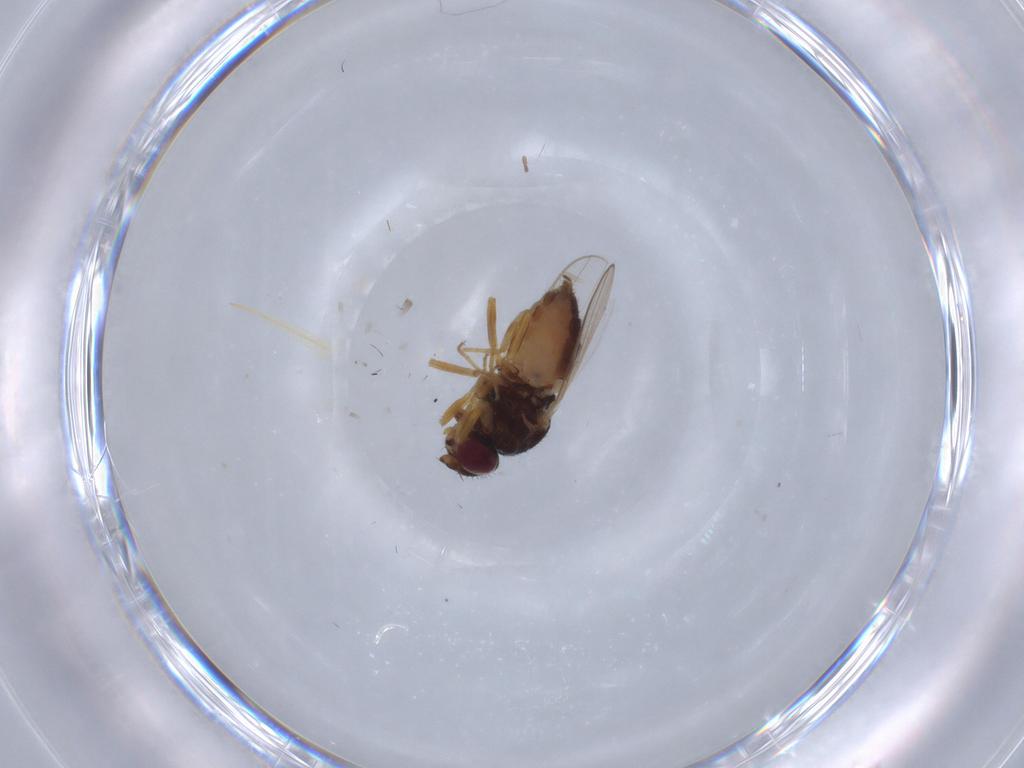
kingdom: Animalia
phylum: Arthropoda
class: Insecta
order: Diptera
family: Chloropidae
